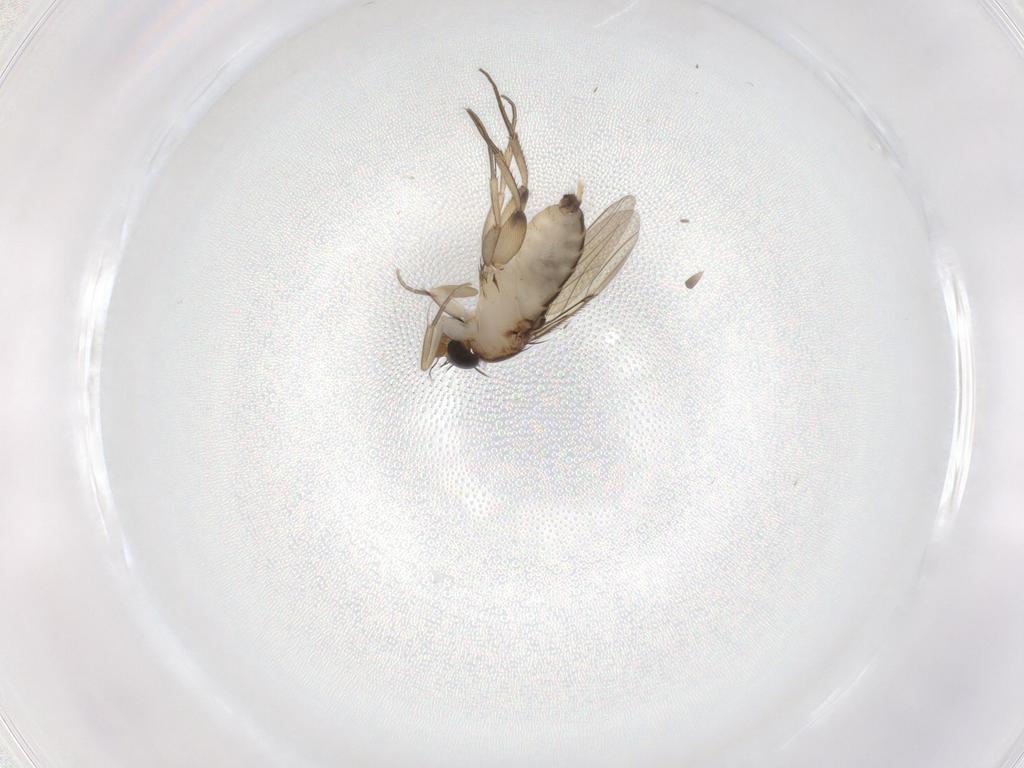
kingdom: Animalia
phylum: Arthropoda
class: Insecta
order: Diptera
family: Phoridae
